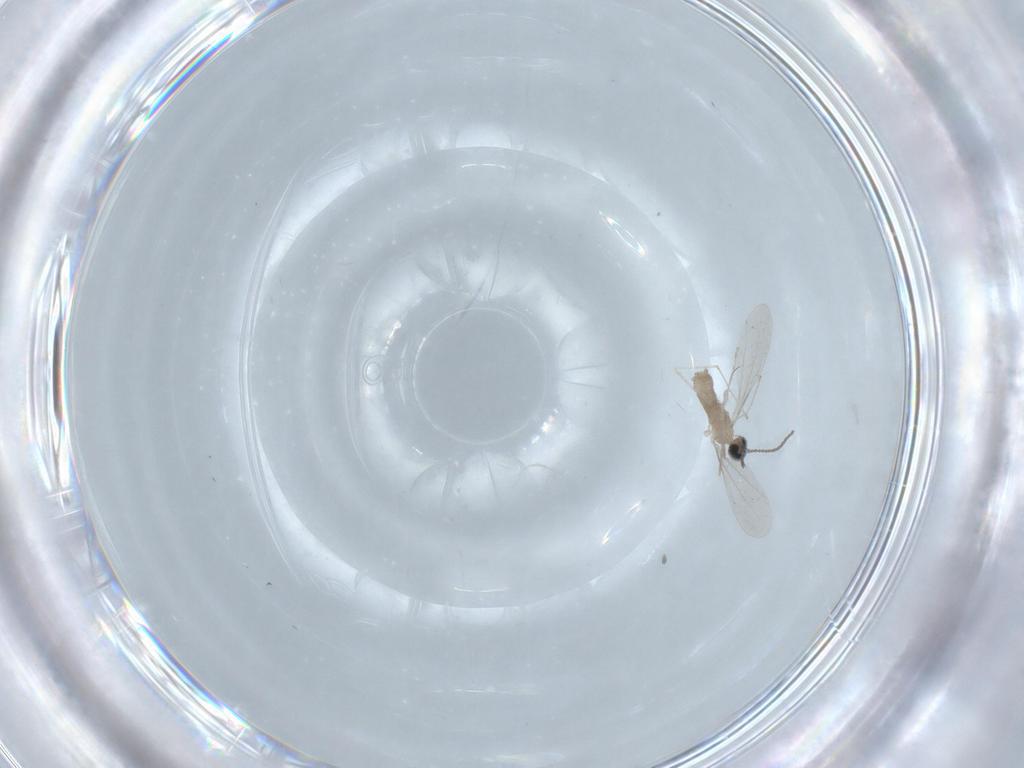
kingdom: Animalia
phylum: Arthropoda
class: Insecta
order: Diptera
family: Cecidomyiidae
